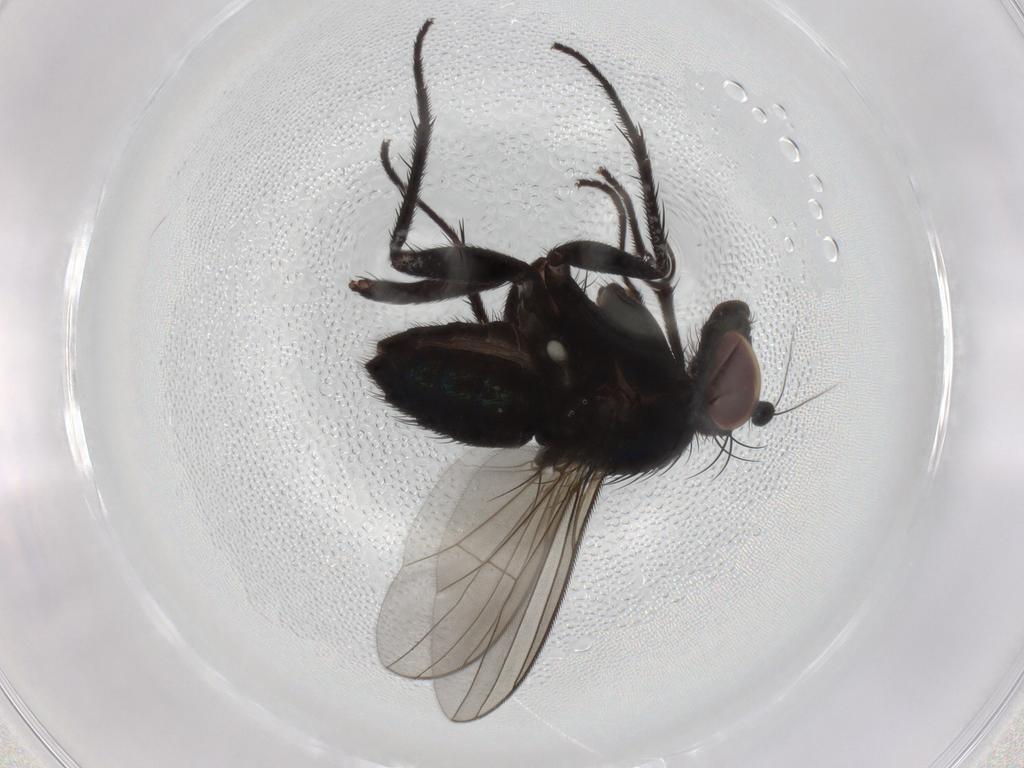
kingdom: Animalia
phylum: Arthropoda
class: Insecta
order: Diptera
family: Dolichopodidae
